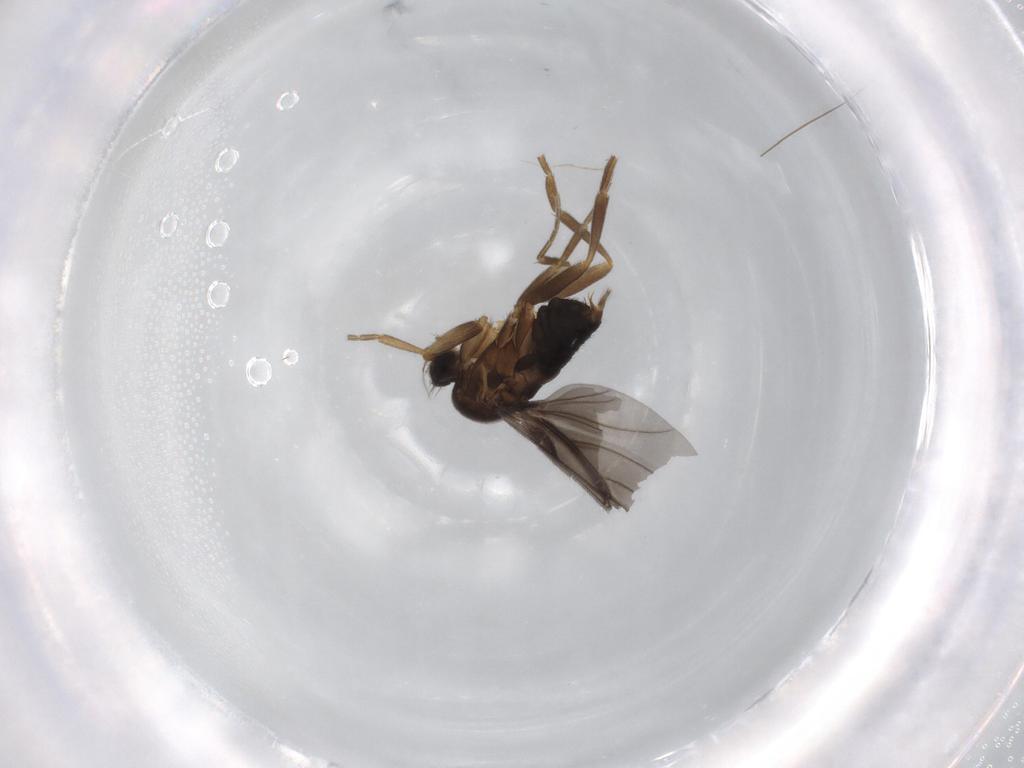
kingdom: Animalia
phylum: Arthropoda
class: Insecta
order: Diptera
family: Phoridae
